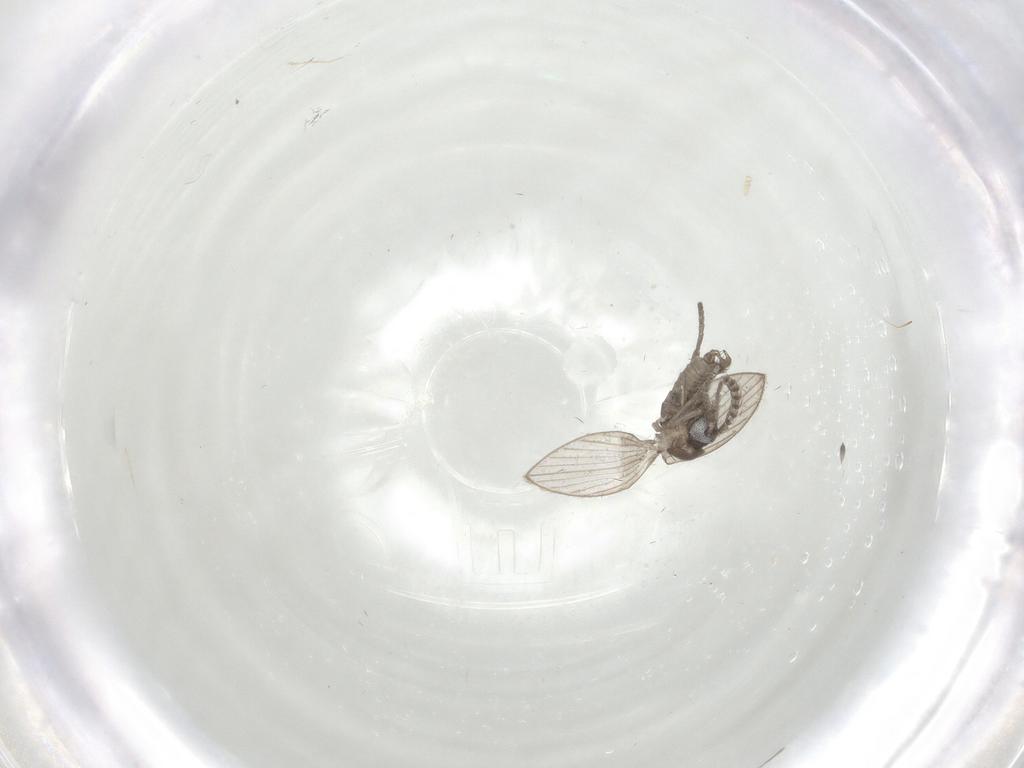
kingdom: Animalia
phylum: Arthropoda
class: Insecta
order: Diptera
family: Psychodidae
